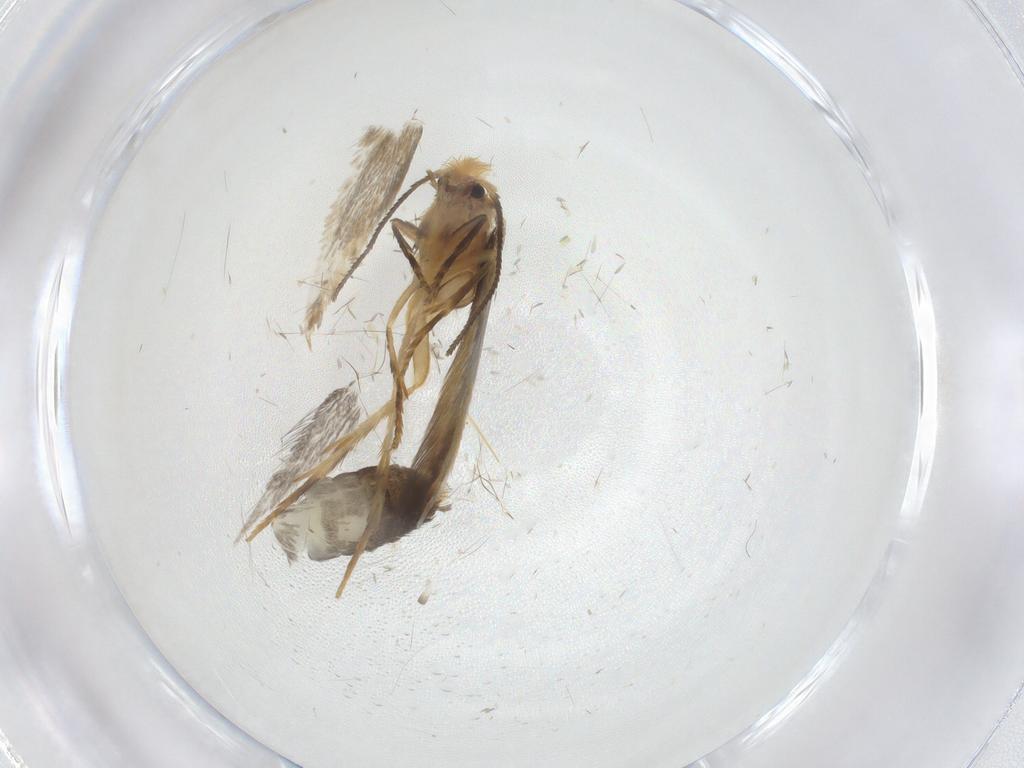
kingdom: Animalia
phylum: Arthropoda
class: Insecta
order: Lepidoptera
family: Nepticulidae
